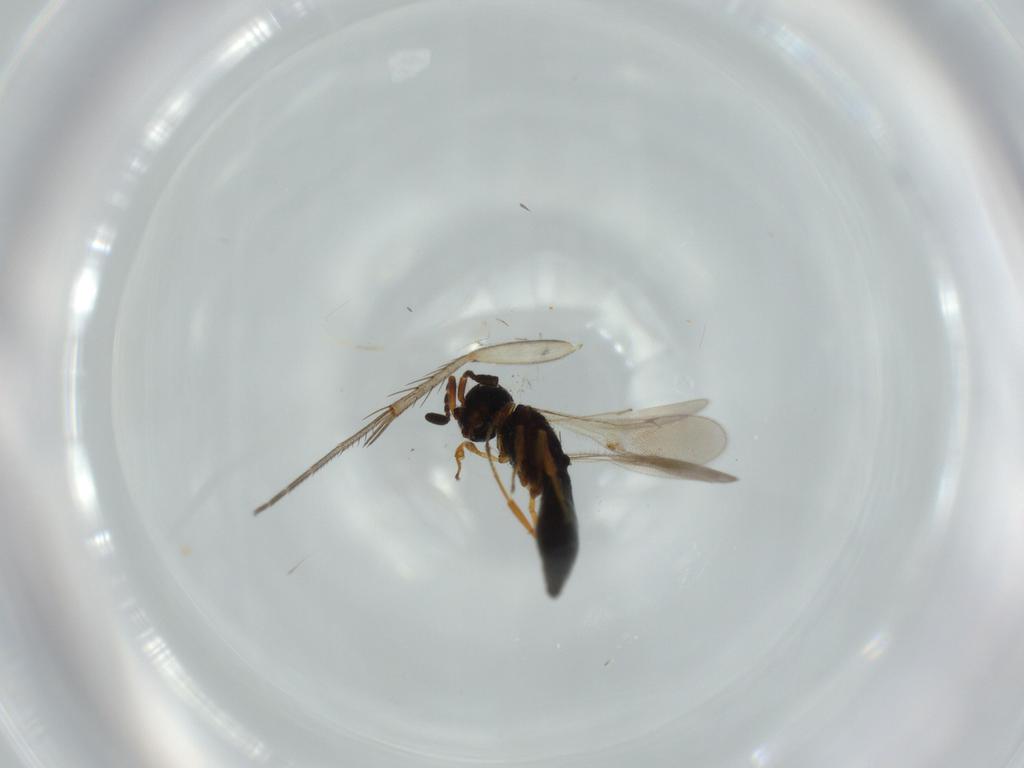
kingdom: Animalia
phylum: Arthropoda
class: Insecta
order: Hymenoptera
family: Scelionidae
